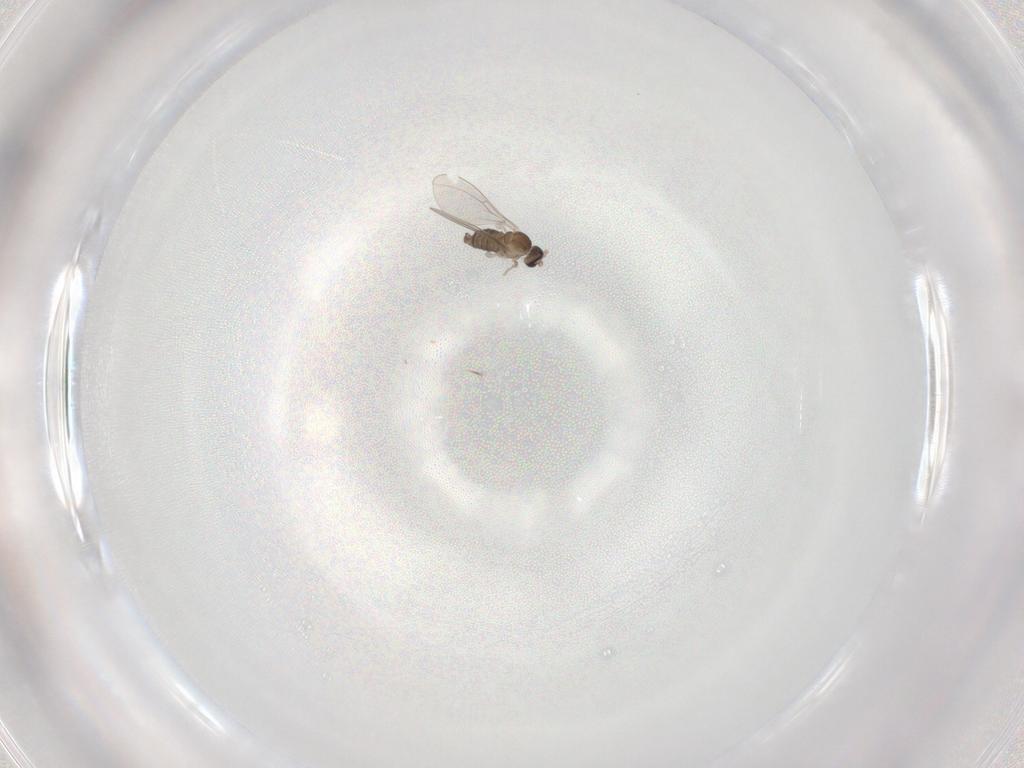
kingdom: Animalia
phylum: Arthropoda
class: Insecta
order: Diptera
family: Cecidomyiidae
